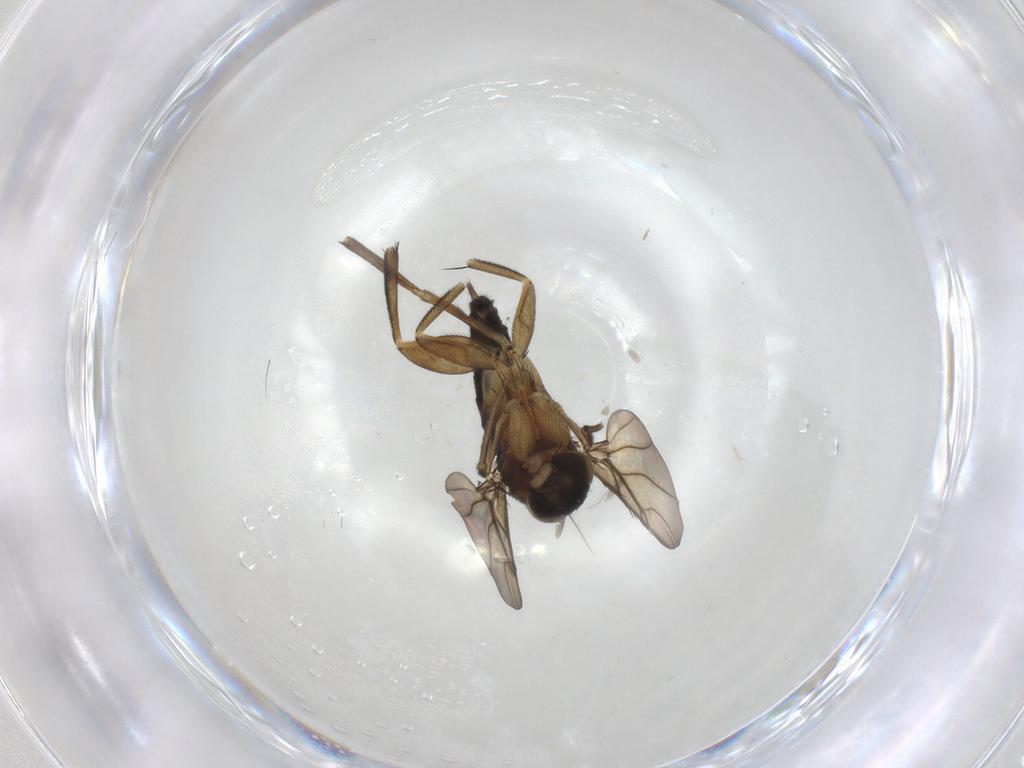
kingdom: Animalia
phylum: Arthropoda
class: Insecta
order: Diptera
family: Phoridae
